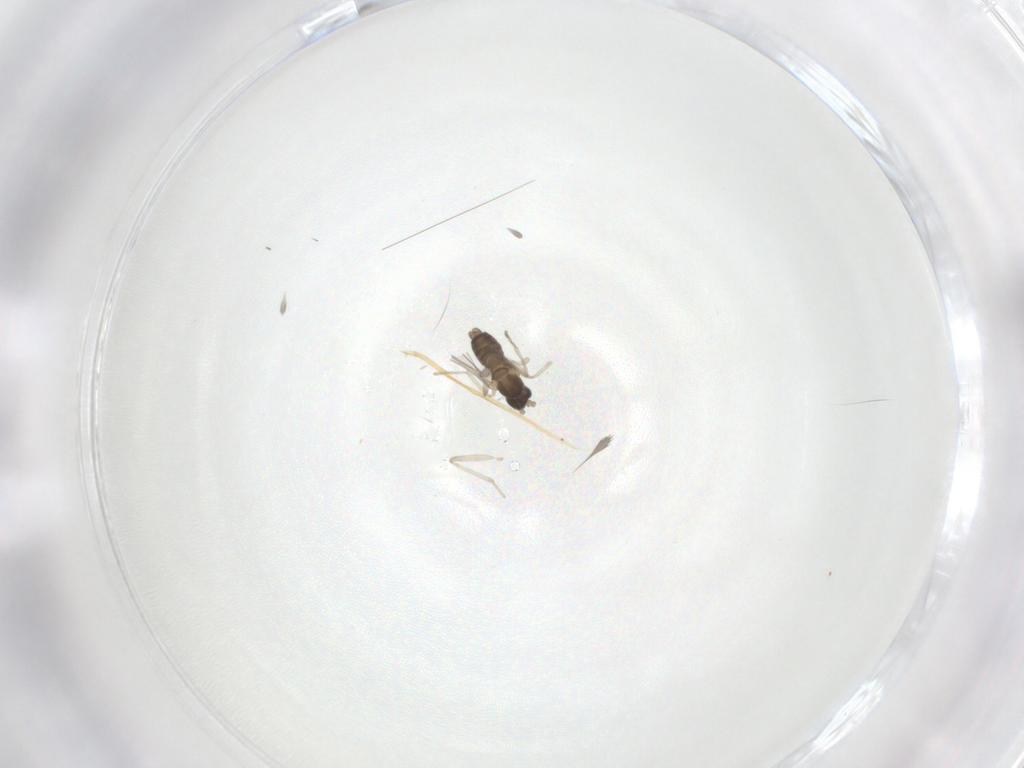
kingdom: Animalia
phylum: Arthropoda
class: Insecta
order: Diptera
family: Cecidomyiidae
